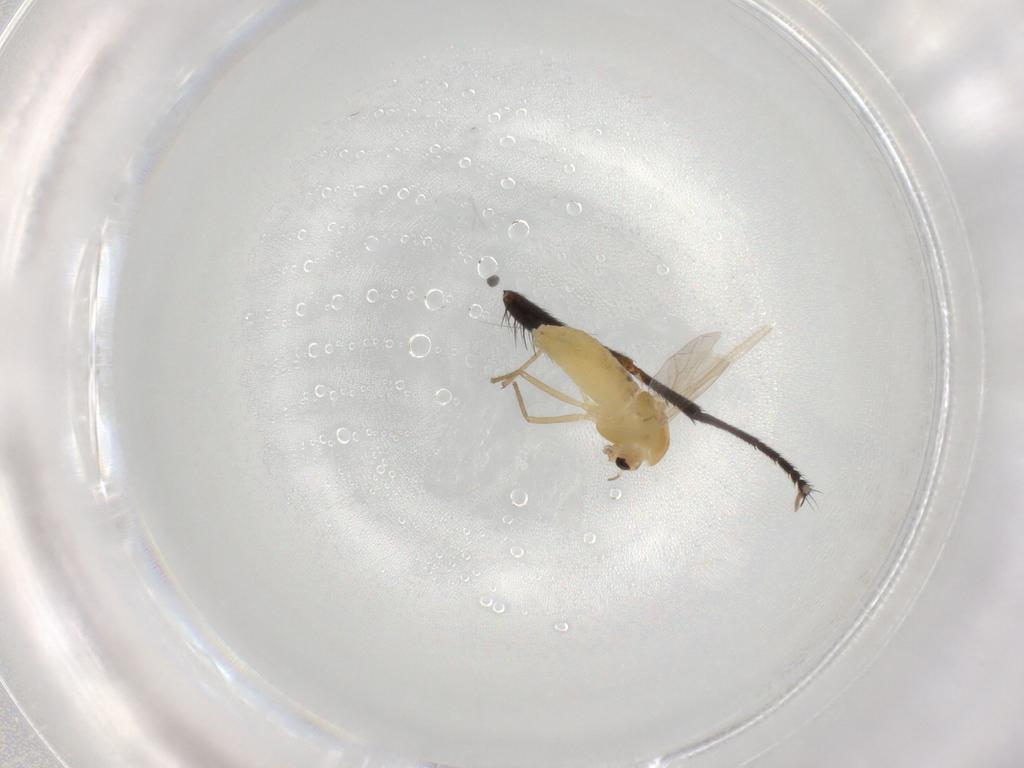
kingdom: Animalia
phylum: Arthropoda
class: Insecta
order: Diptera
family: Chironomidae
